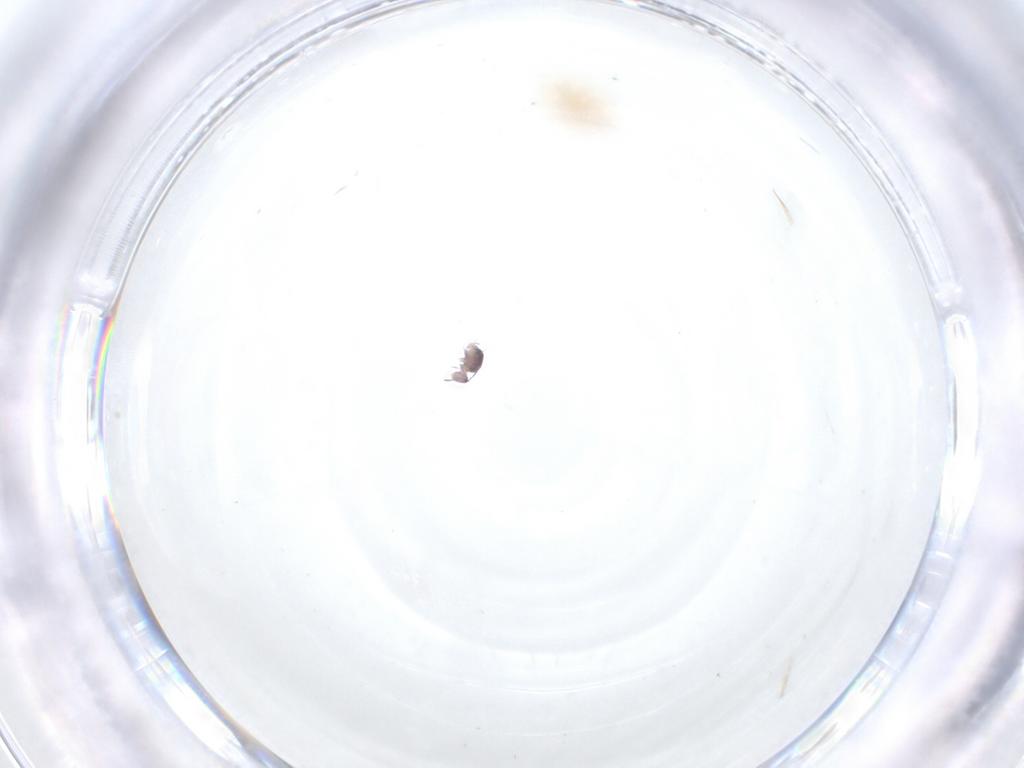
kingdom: Animalia
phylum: Arthropoda
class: Collembola
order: Symphypleona
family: Sminthurididae
